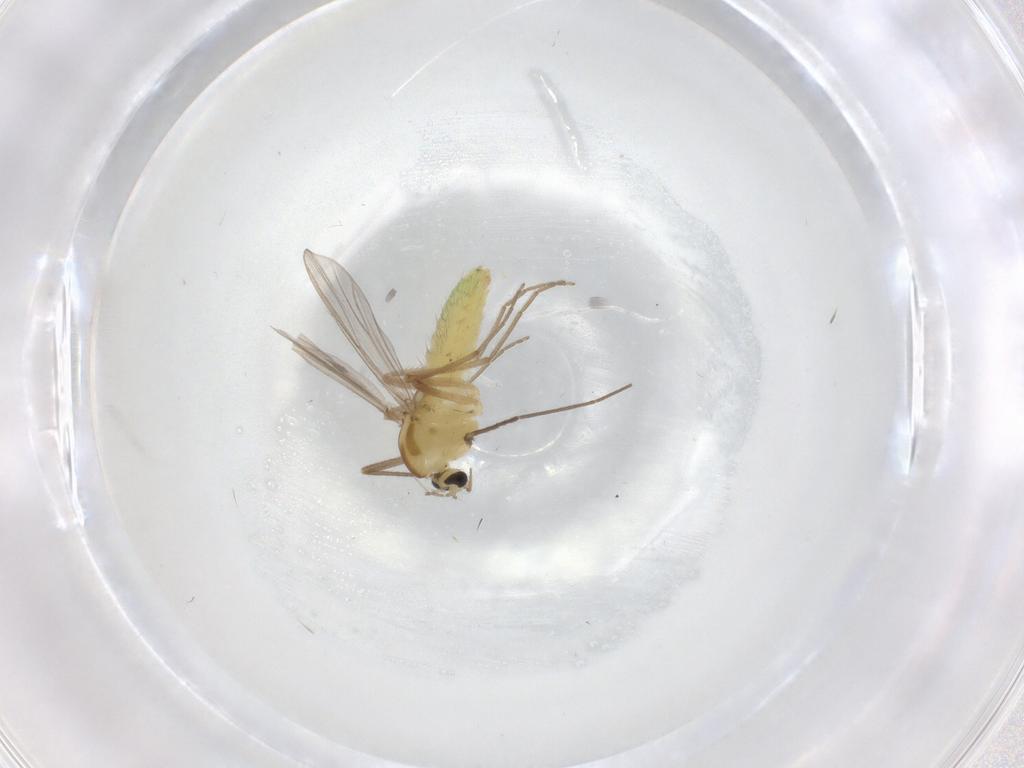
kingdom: Animalia
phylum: Arthropoda
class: Insecta
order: Diptera
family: Chironomidae
